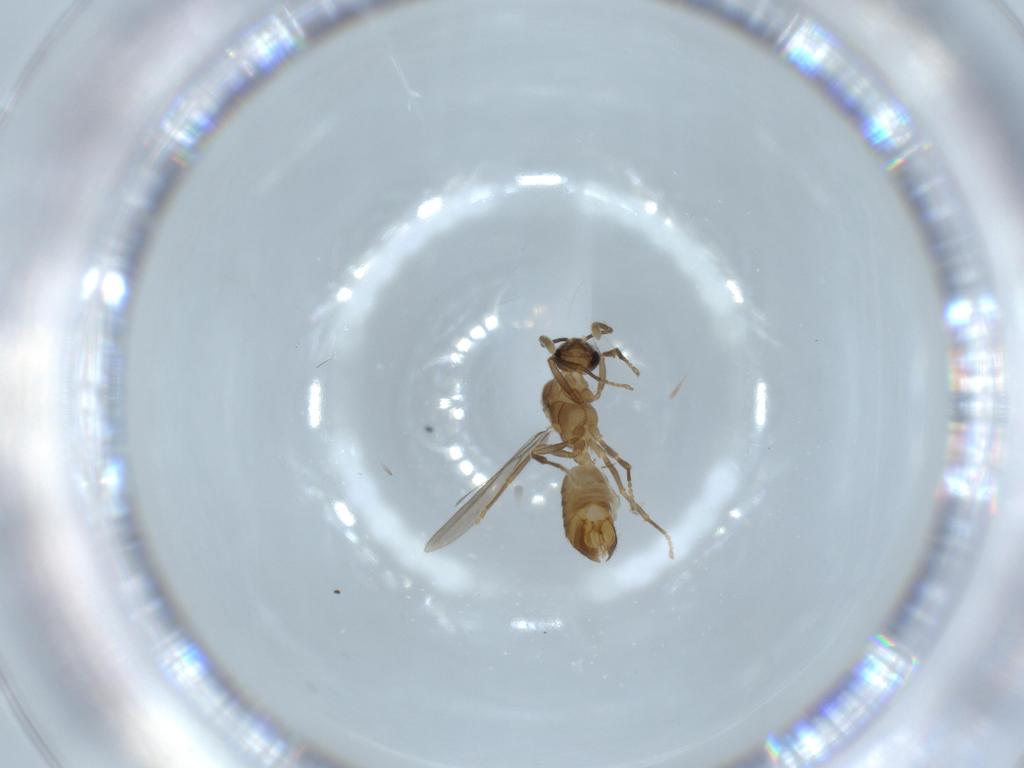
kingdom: Animalia
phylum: Arthropoda
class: Insecta
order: Hymenoptera
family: Formicidae
